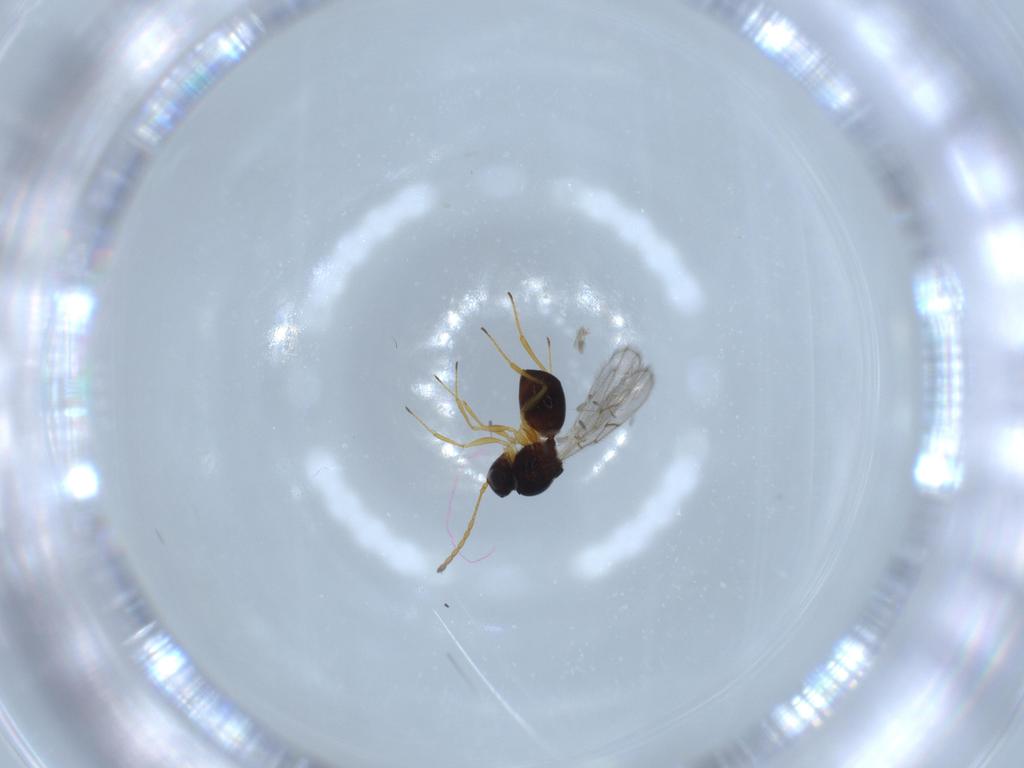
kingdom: Animalia
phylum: Arthropoda
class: Insecta
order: Hymenoptera
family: Figitidae
